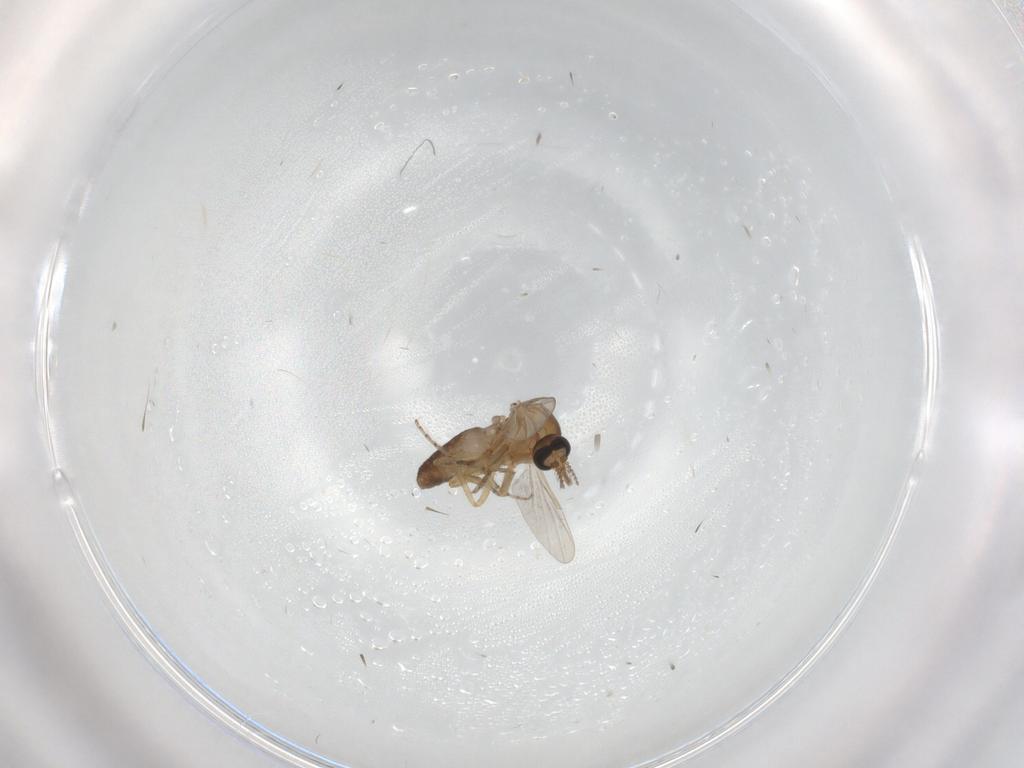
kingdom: Animalia
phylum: Arthropoda
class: Insecta
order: Diptera
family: Ceratopogonidae
